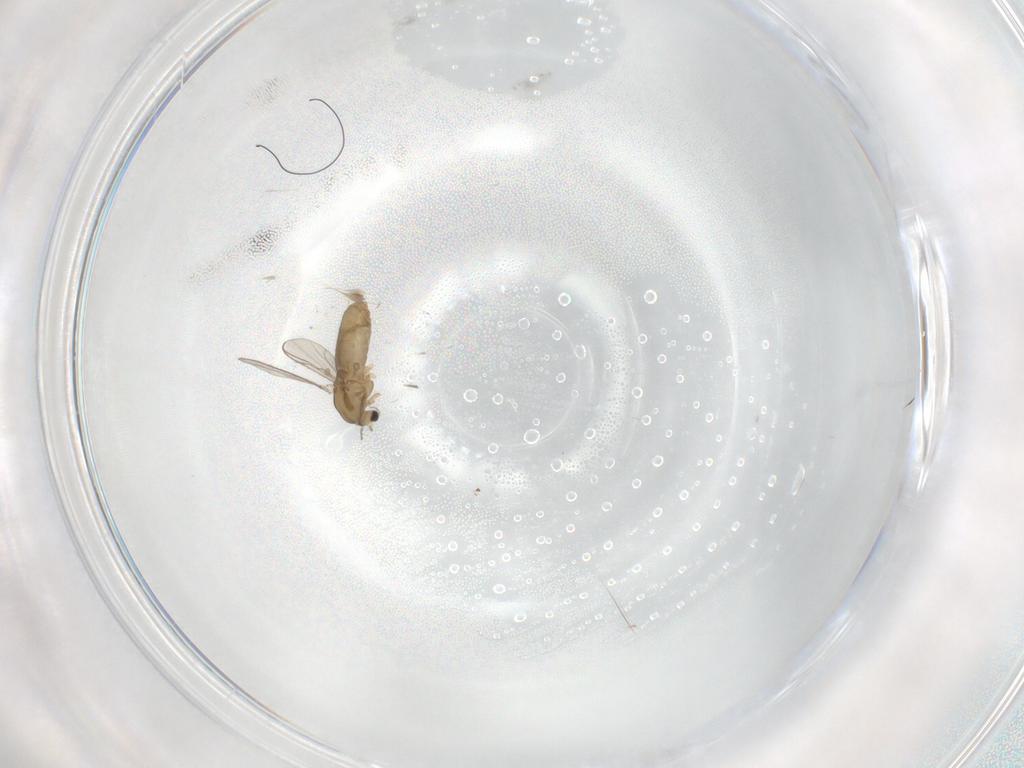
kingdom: Animalia
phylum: Arthropoda
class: Insecta
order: Diptera
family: Chironomidae
